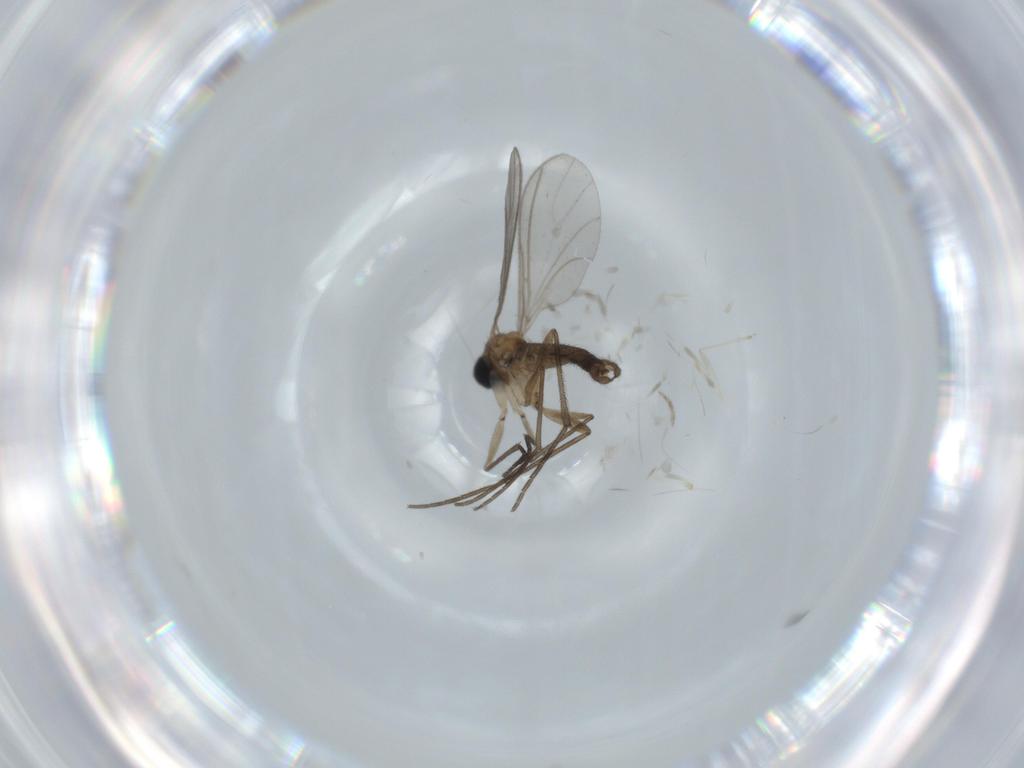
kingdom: Animalia
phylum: Arthropoda
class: Insecta
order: Diptera
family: Sciaridae
